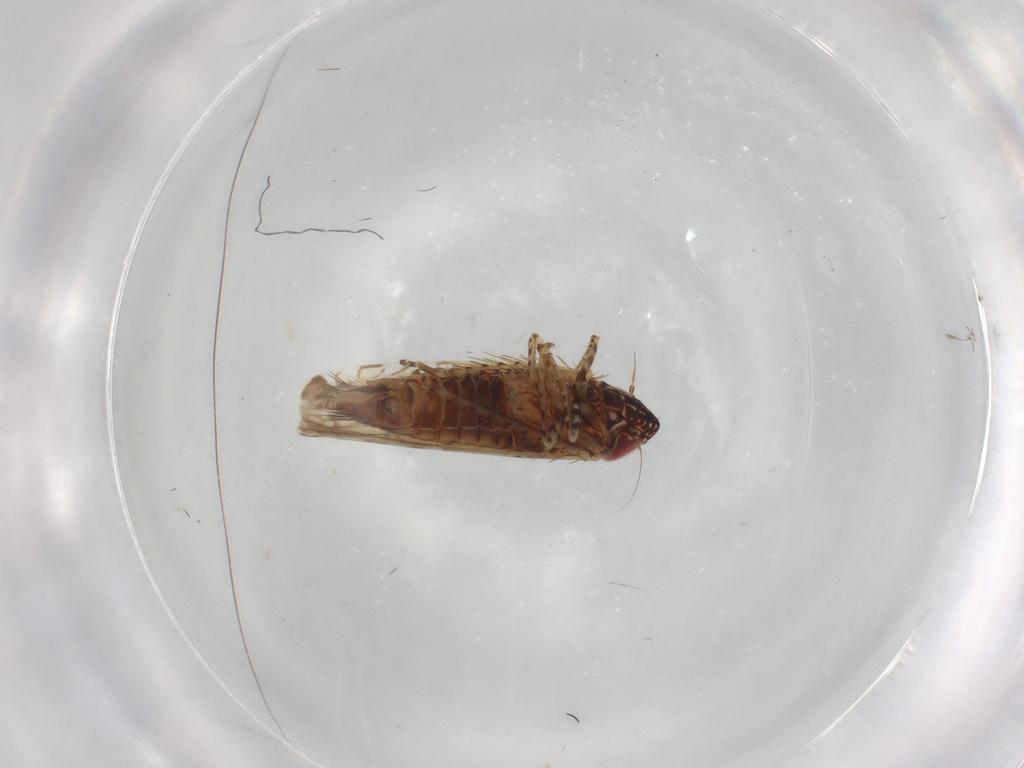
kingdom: Animalia
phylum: Arthropoda
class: Insecta
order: Hemiptera
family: Cicadellidae
